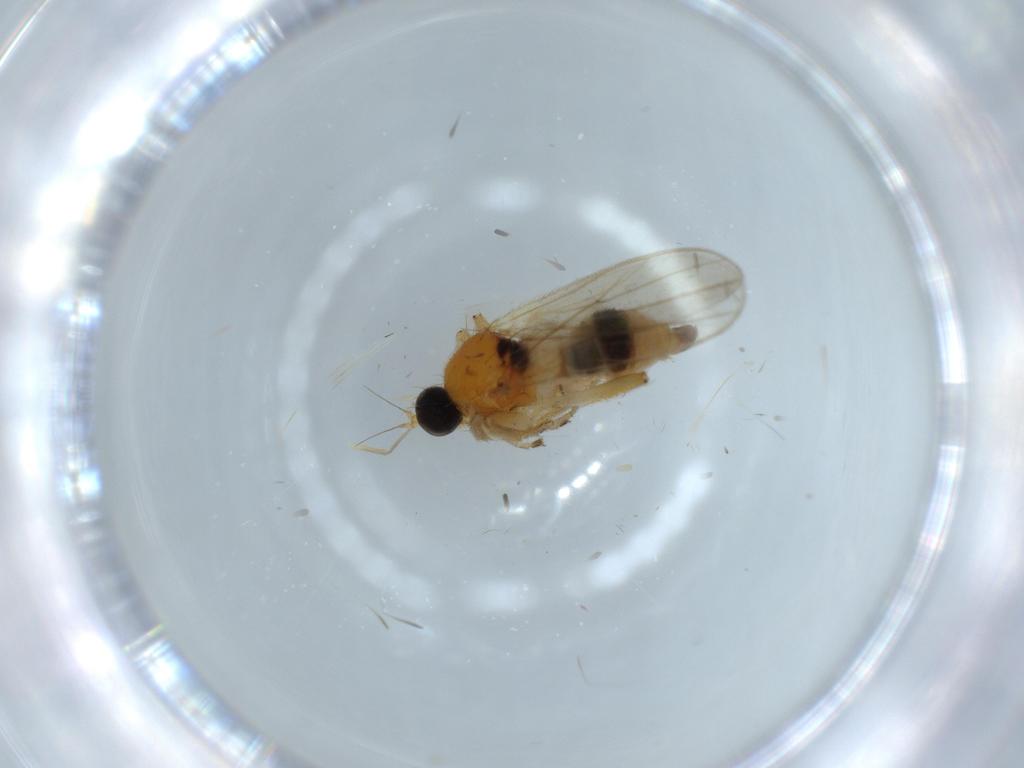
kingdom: Animalia
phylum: Arthropoda
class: Insecta
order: Diptera
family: Hybotidae
